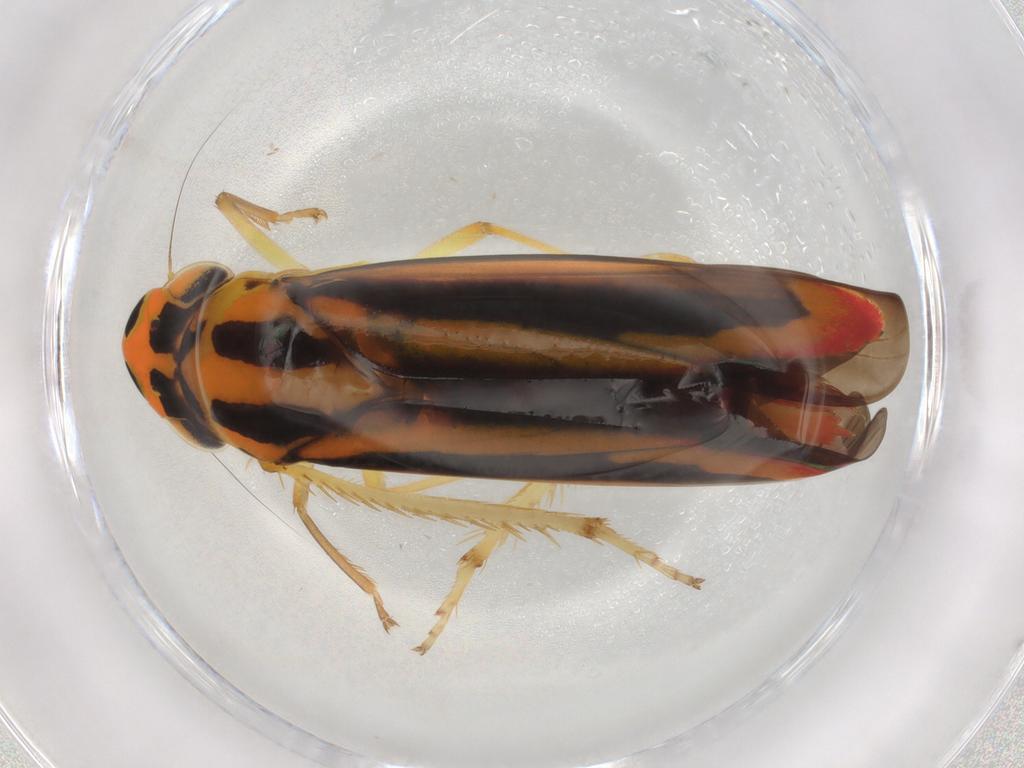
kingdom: Animalia
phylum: Arthropoda
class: Insecta
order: Hemiptera
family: Cicadellidae
